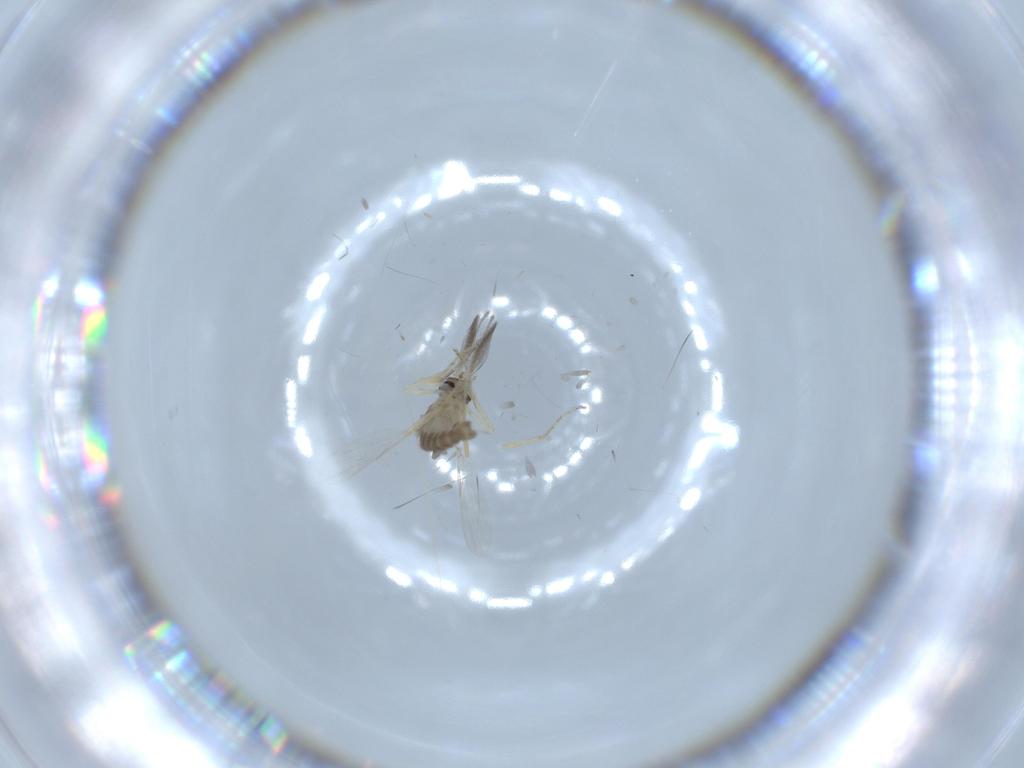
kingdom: Animalia
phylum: Arthropoda
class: Insecta
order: Diptera
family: Ceratopogonidae
